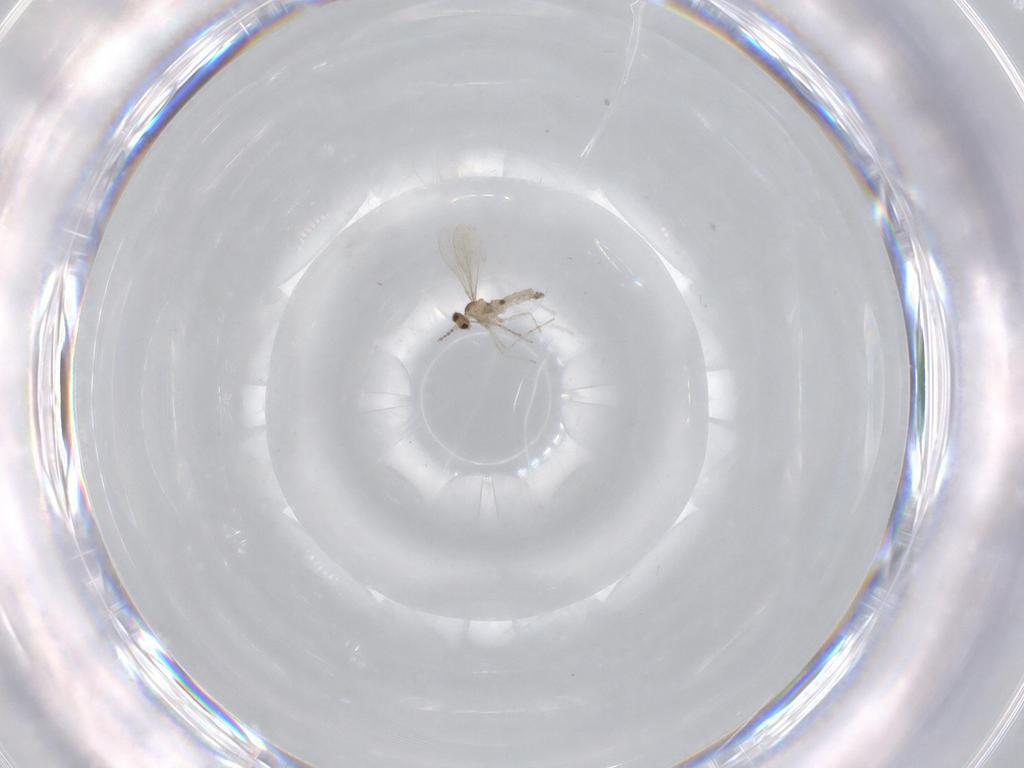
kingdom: Animalia
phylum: Arthropoda
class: Insecta
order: Diptera
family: Cecidomyiidae
